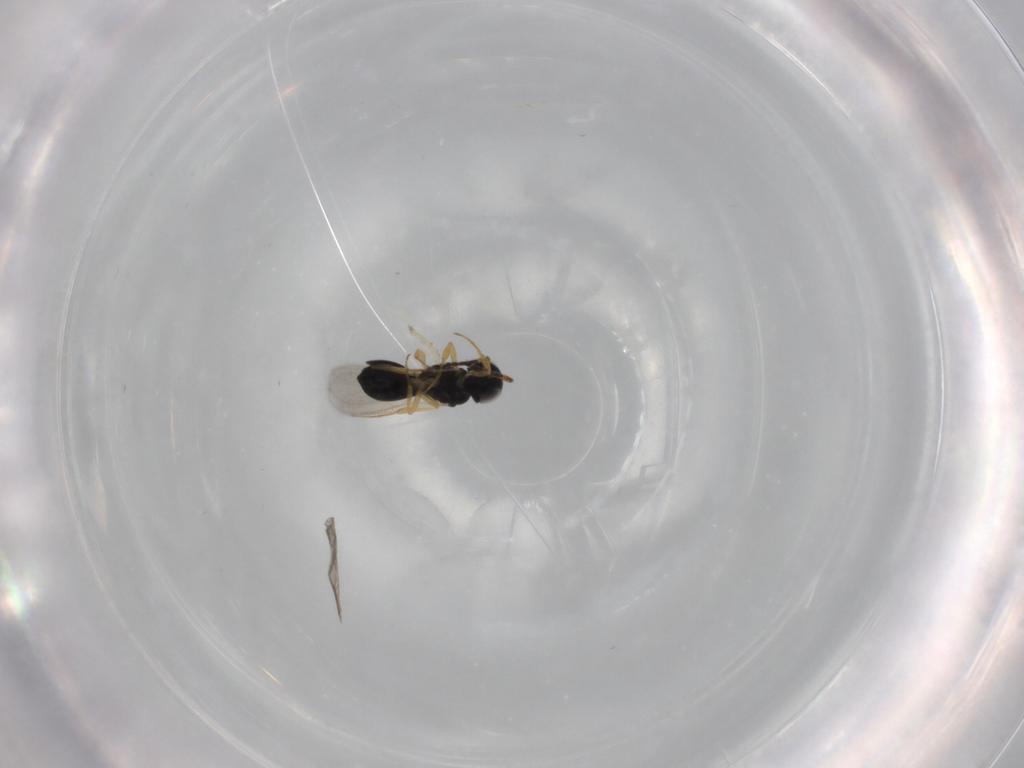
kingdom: Animalia
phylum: Arthropoda
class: Insecta
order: Hymenoptera
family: Scelionidae
